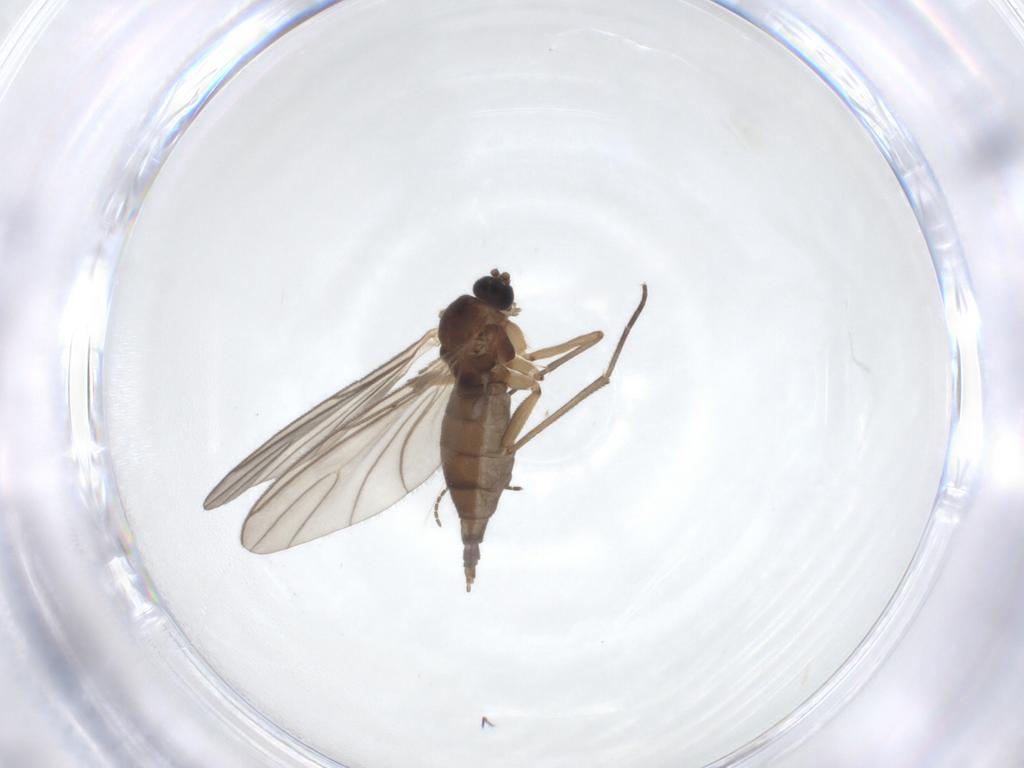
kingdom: Animalia
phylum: Arthropoda
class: Insecta
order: Diptera
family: Sciaridae
